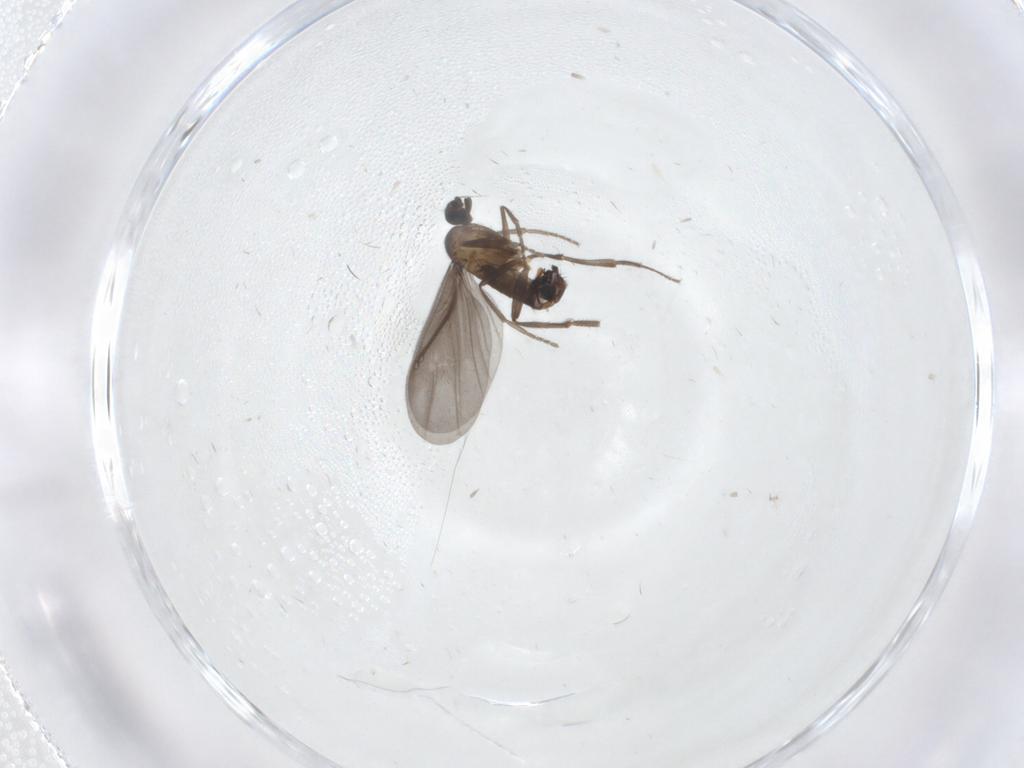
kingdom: Animalia
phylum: Arthropoda
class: Insecta
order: Diptera
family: Phoridae
